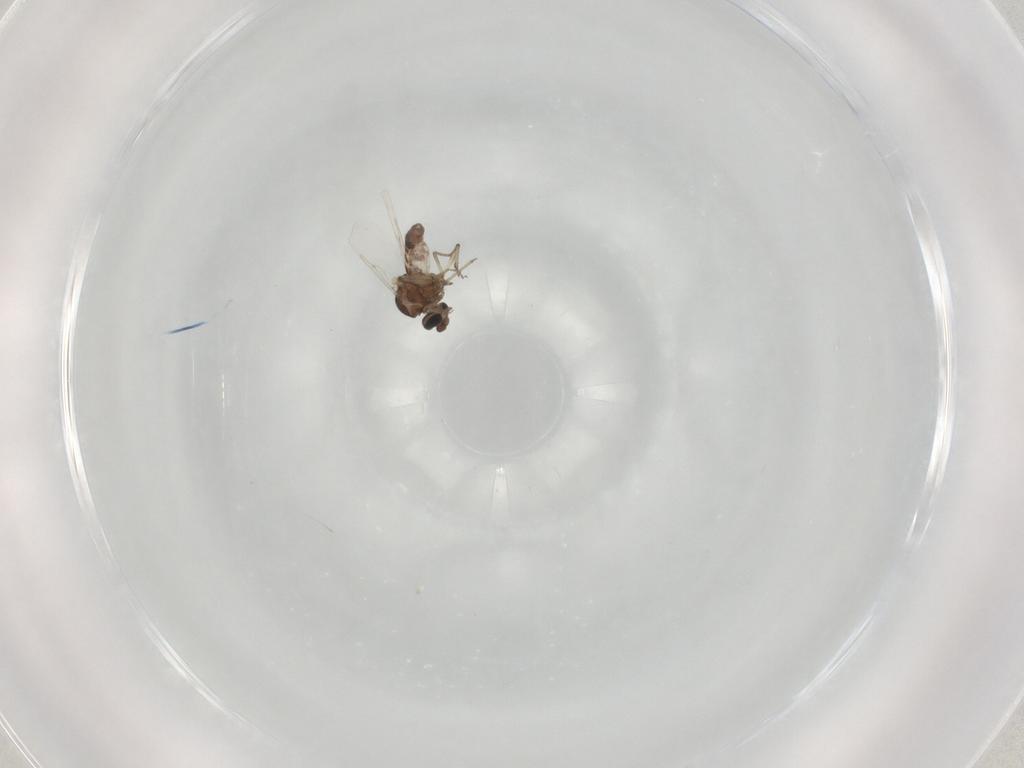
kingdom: Animalia
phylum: Arthropoda
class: Insecta
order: Diptera
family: Ceratopogonidae
